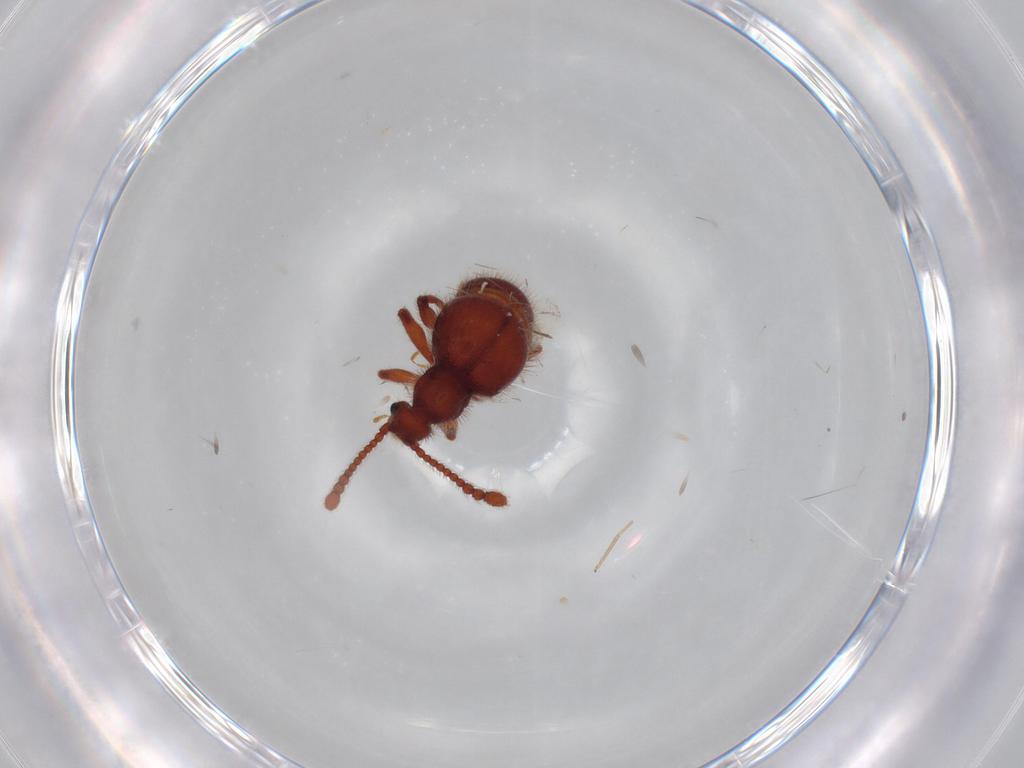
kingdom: Animalia
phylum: Arthropoda
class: Insecta
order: Coleoptera
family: Staphylinidae
